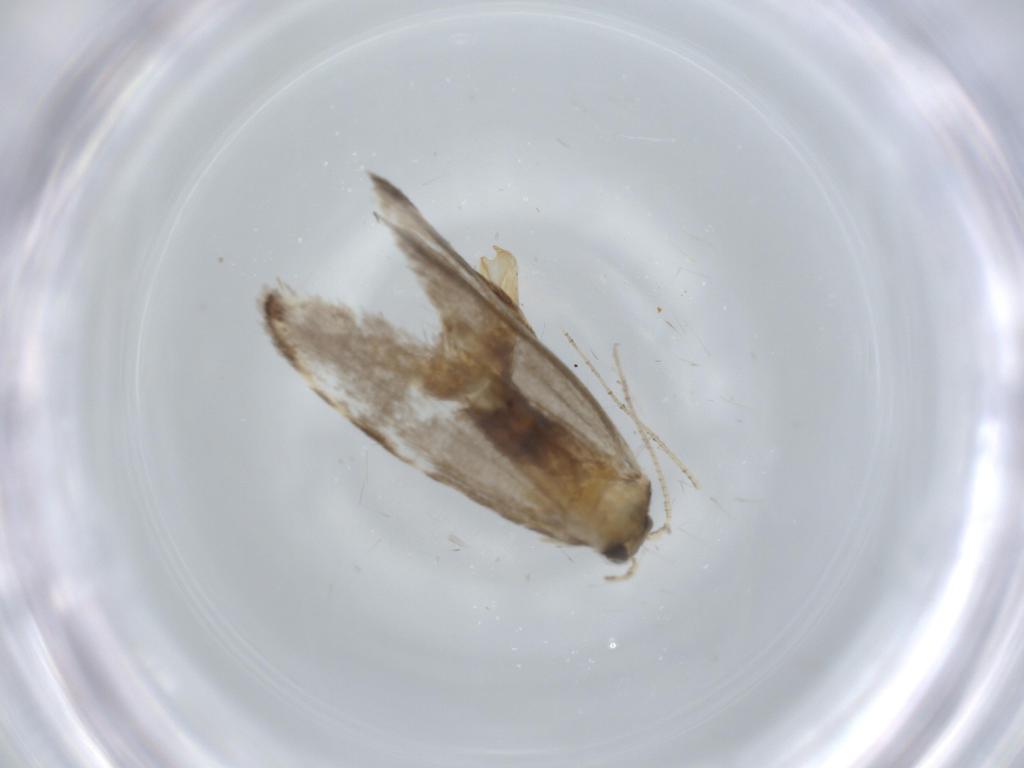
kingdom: Animalia
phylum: Arthropoda
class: Insecta
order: Lepidoptera
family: Tineidae
